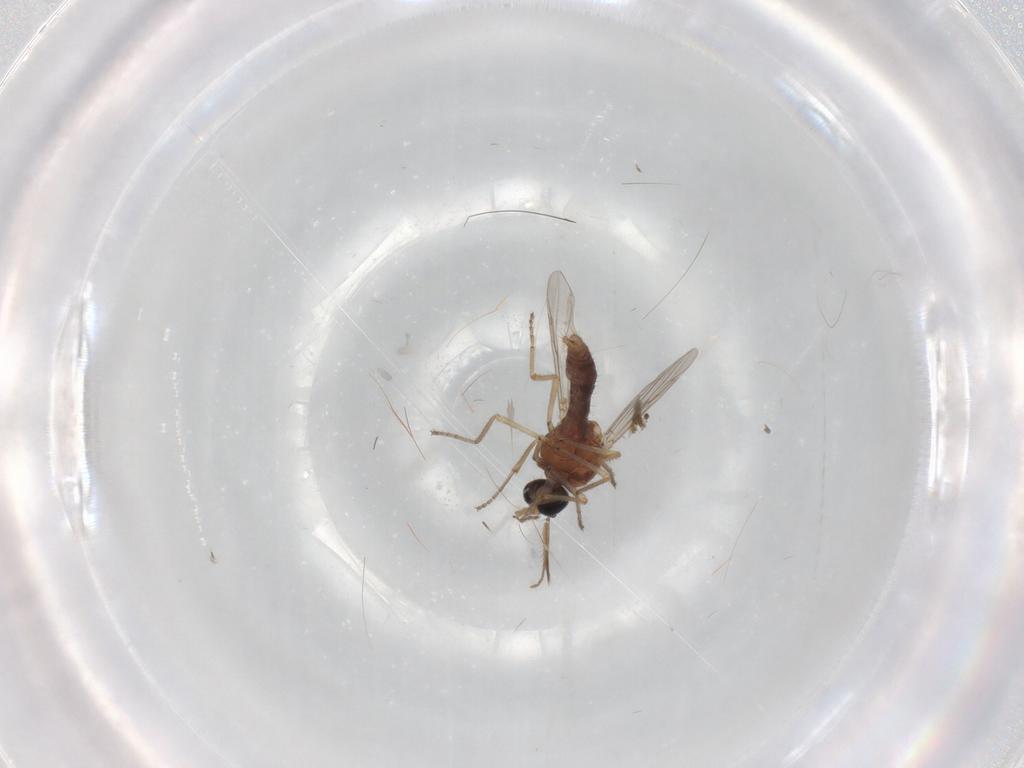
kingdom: Animalia
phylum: Arthropoda
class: Insecta
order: Diptera
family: Ceratopogonidae
